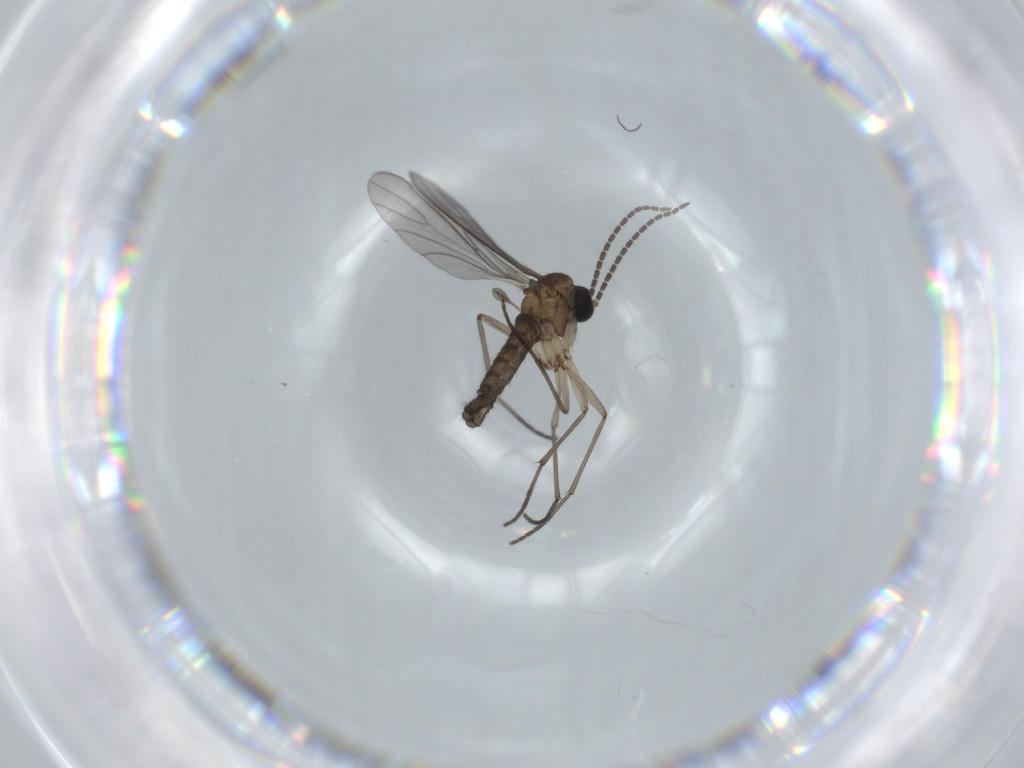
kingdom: Animalia
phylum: Arthropoda
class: Insecta
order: Diptera
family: Sciaridae
